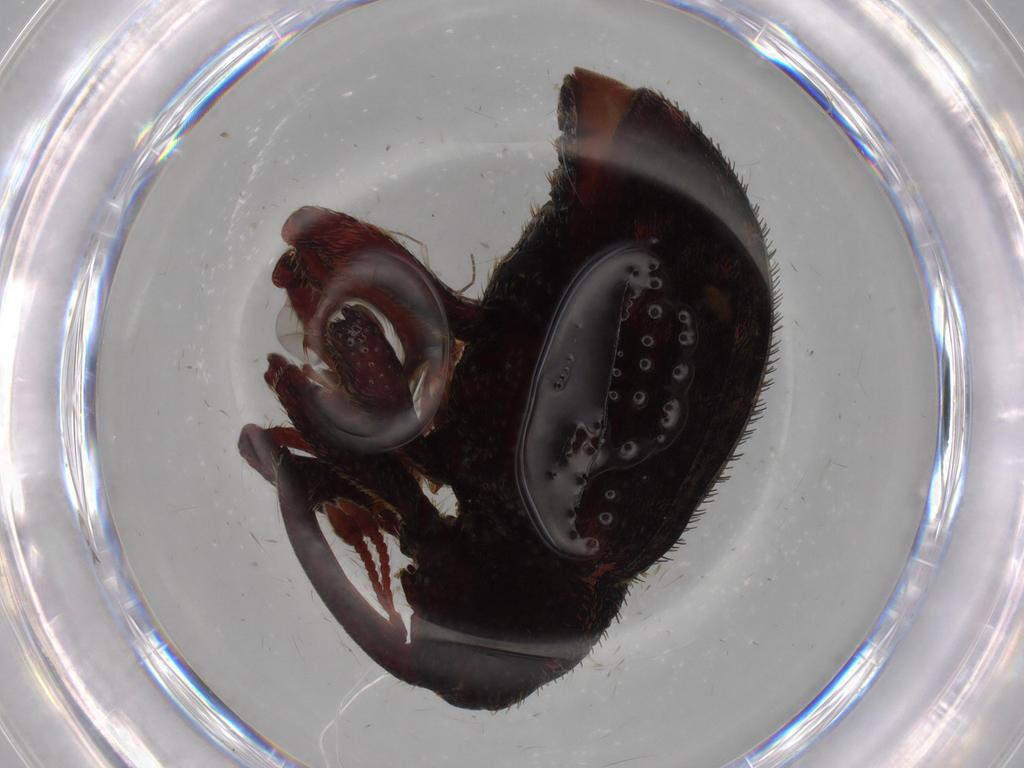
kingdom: Animalia
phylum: Arthropoda
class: Insecta
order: Coleoptera
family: Curculionidae
